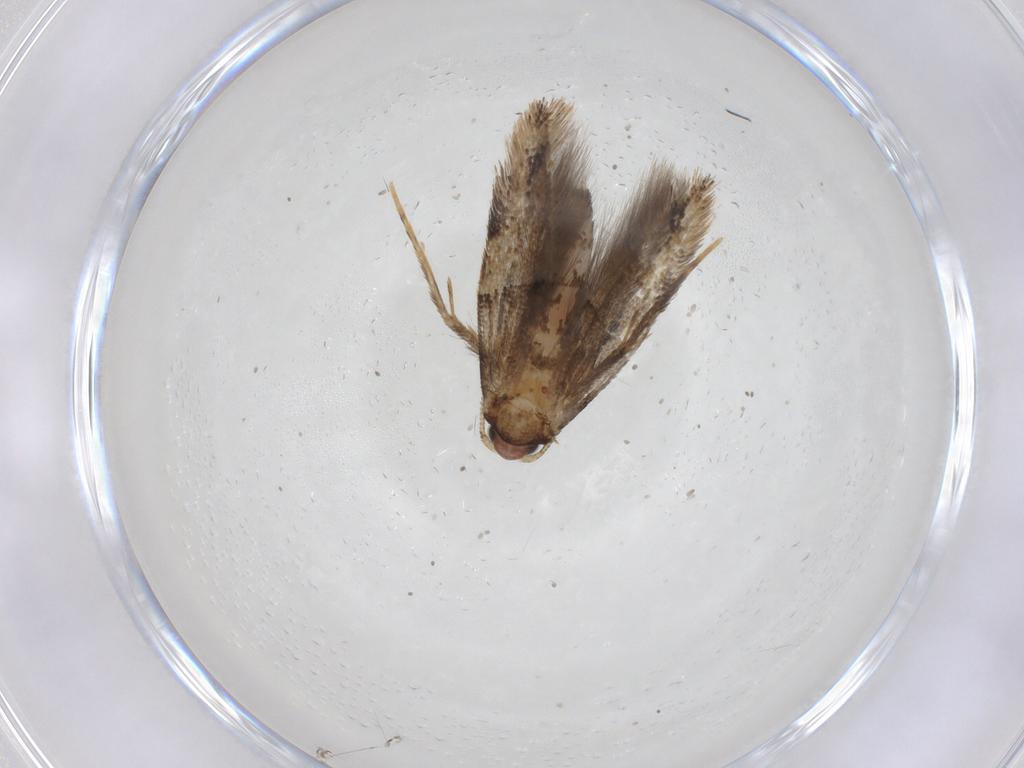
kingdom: Animalia
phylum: Arthropoda
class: Insecta
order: Lepidoptera
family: Tineidae
